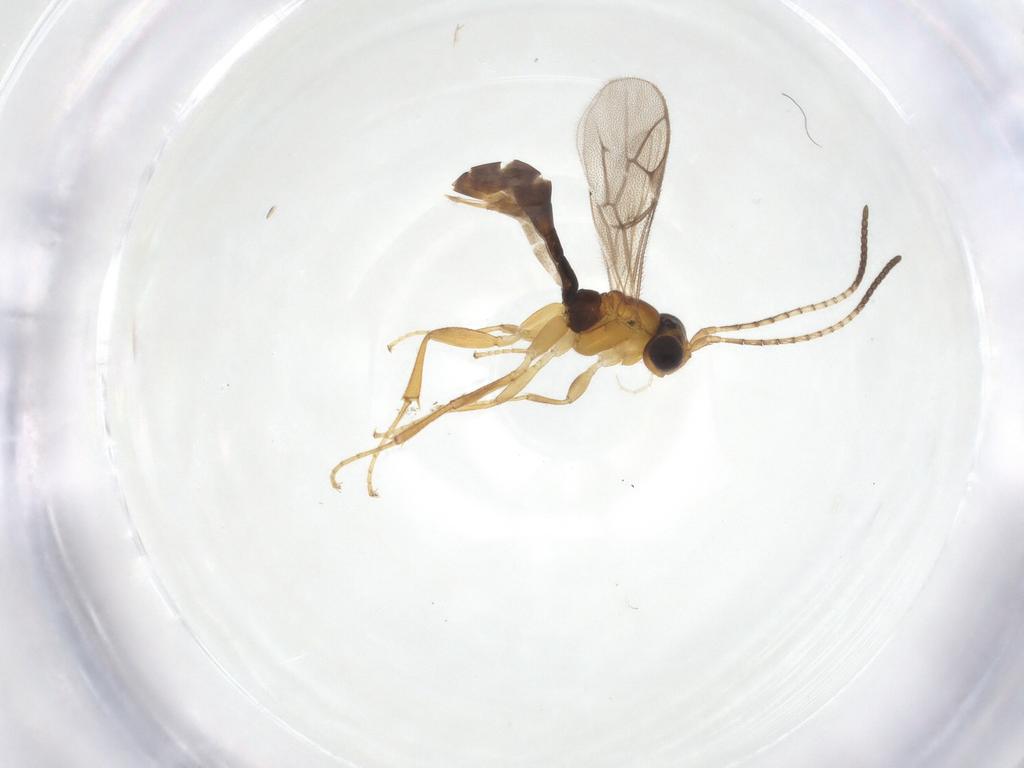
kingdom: Animalia
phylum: Arthropoda
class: Insecta
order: Hymenoptera
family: Ichneumonidae
